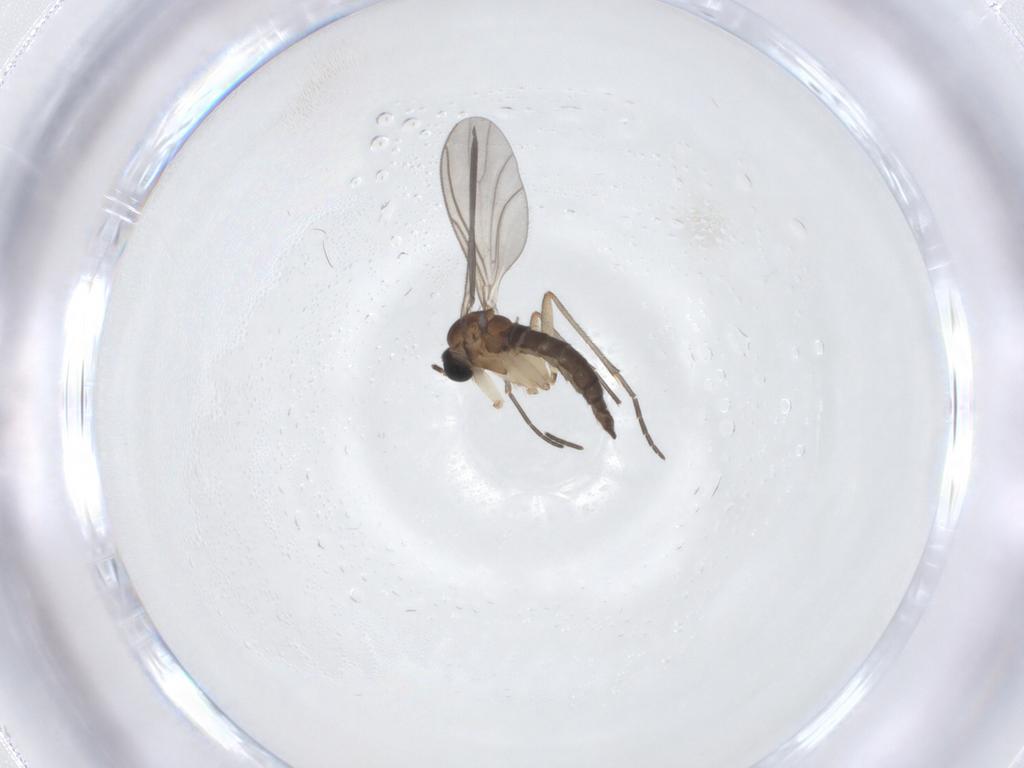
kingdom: Animalia
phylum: Arthropoda
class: Insecta
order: Diptera
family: Sciaridae
